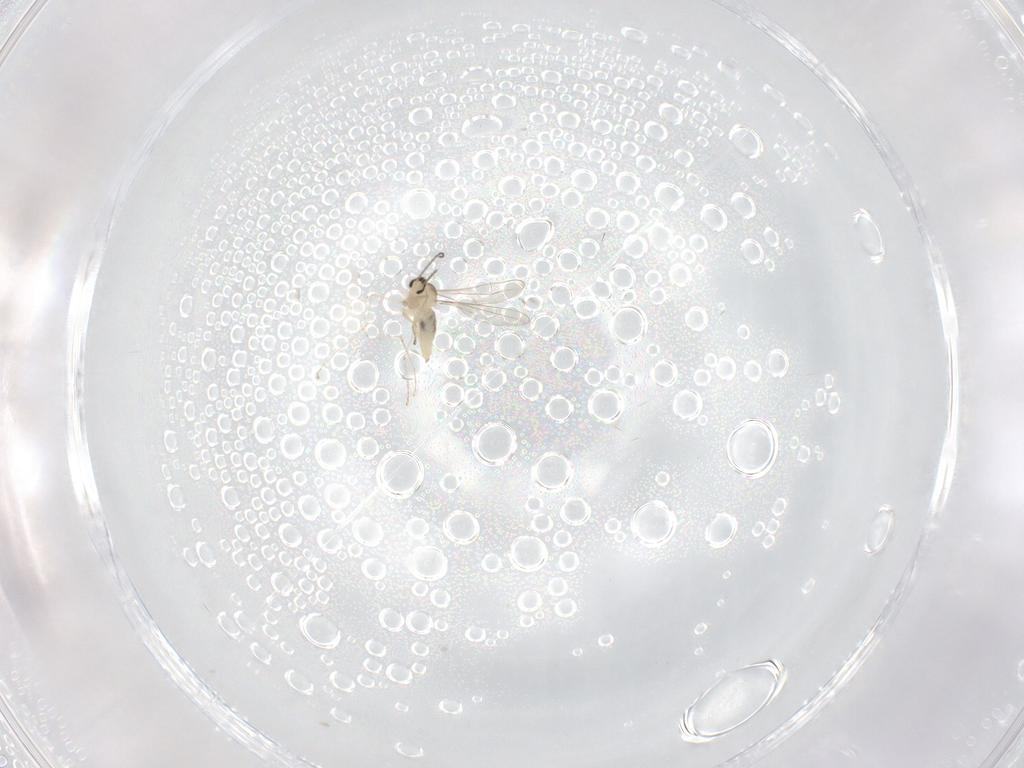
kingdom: Animalia
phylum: Arthropoda
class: Insecta
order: Diptera
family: Cecidomyiidae
